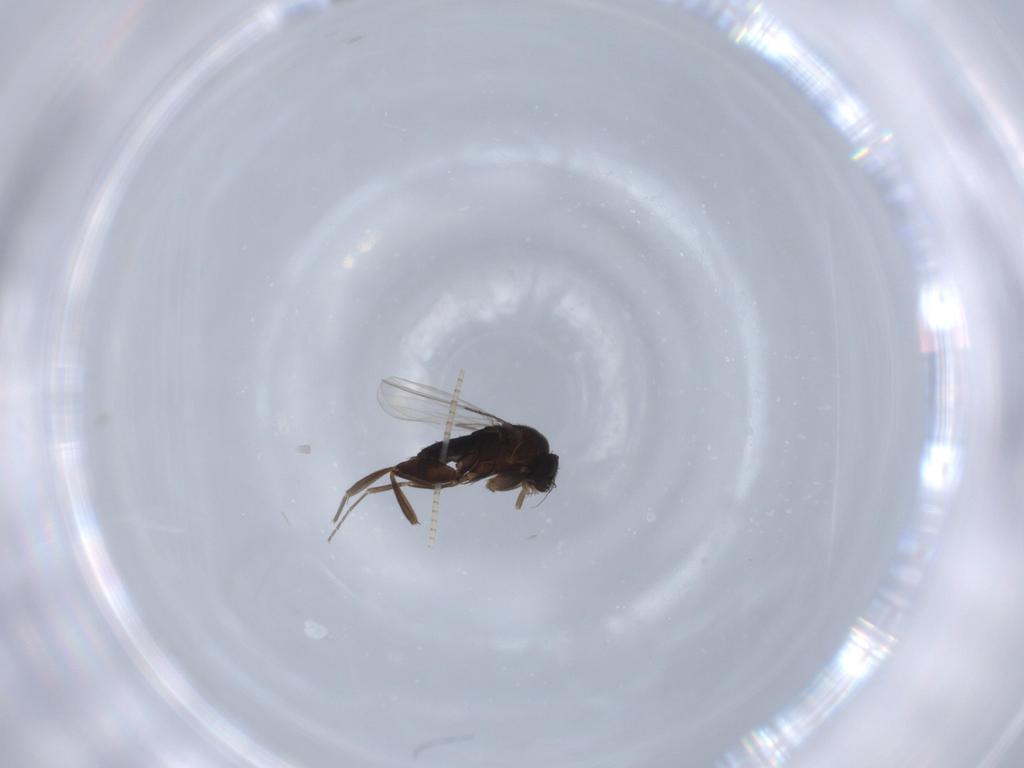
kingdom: Animalia
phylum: Arthropoda
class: Insecta
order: Diptera
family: Phoridae
